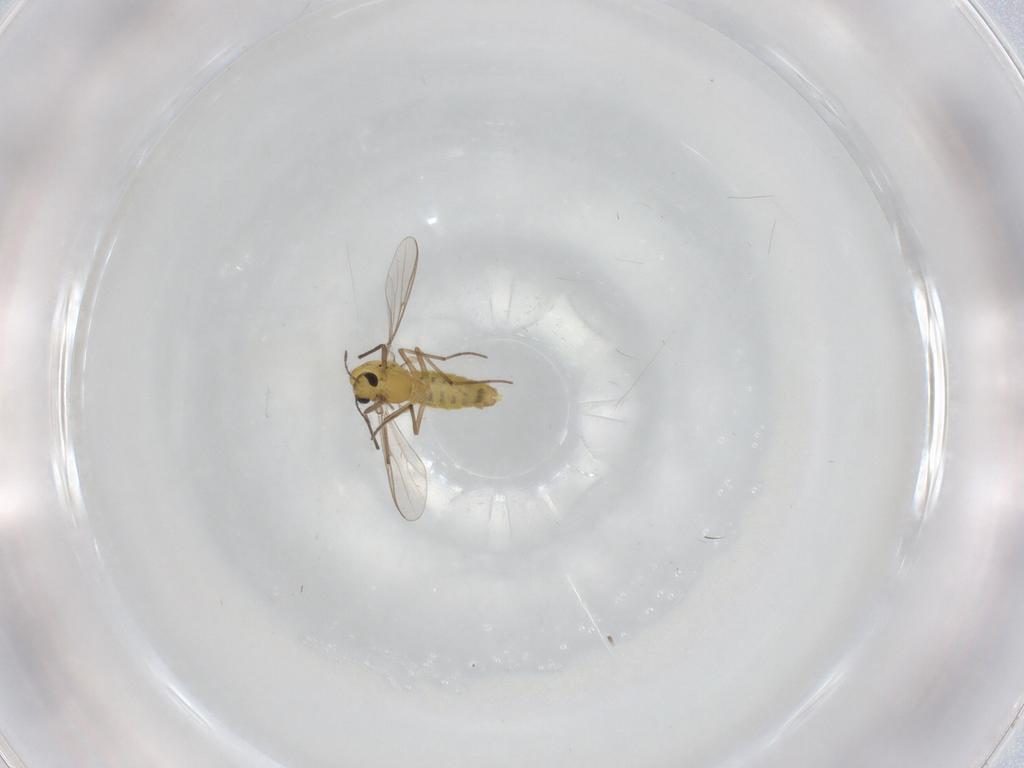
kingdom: Animalia
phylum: Arthropoda
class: Insecta
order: Diptera
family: Chironomidae
